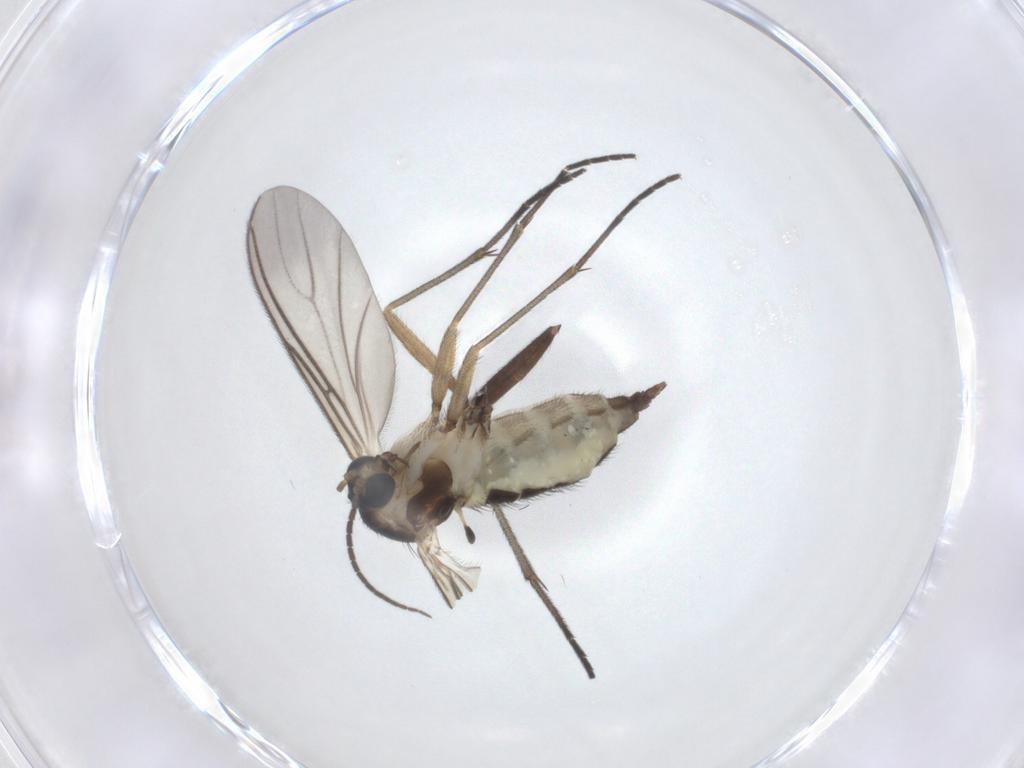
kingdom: Animalia
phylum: Arthropoda
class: Insecta
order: Diptera
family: Sciaridae
